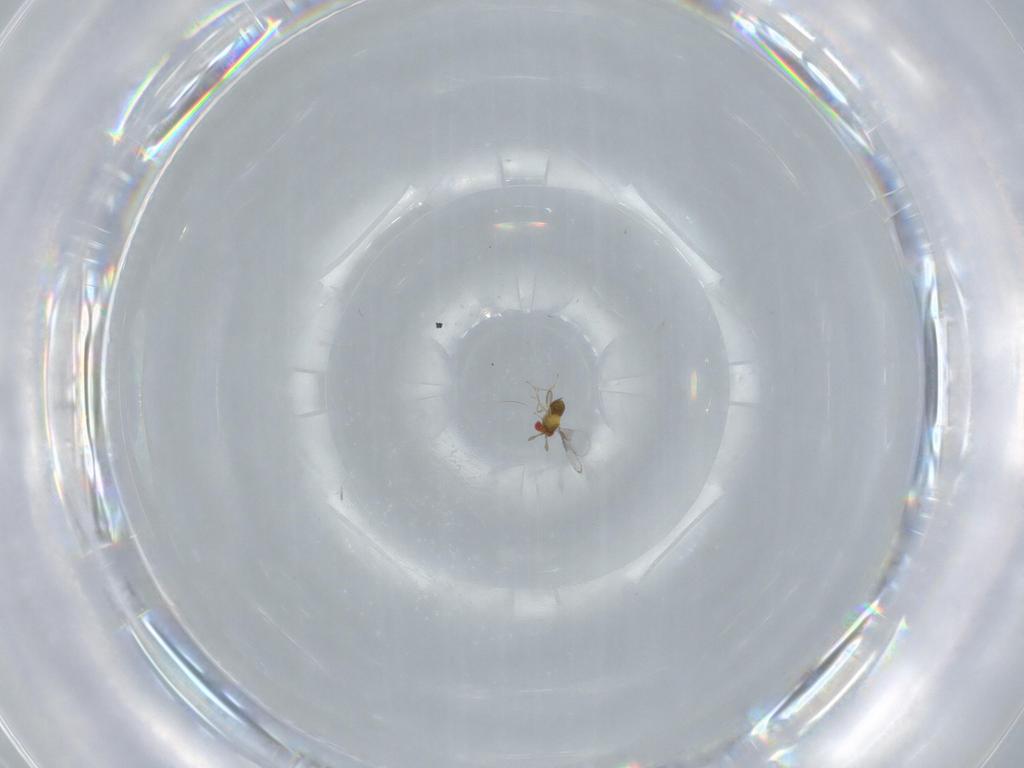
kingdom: Animalia
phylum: Arthropoda
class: Insecta
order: Hymenoptera
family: Trichogrammatidae
